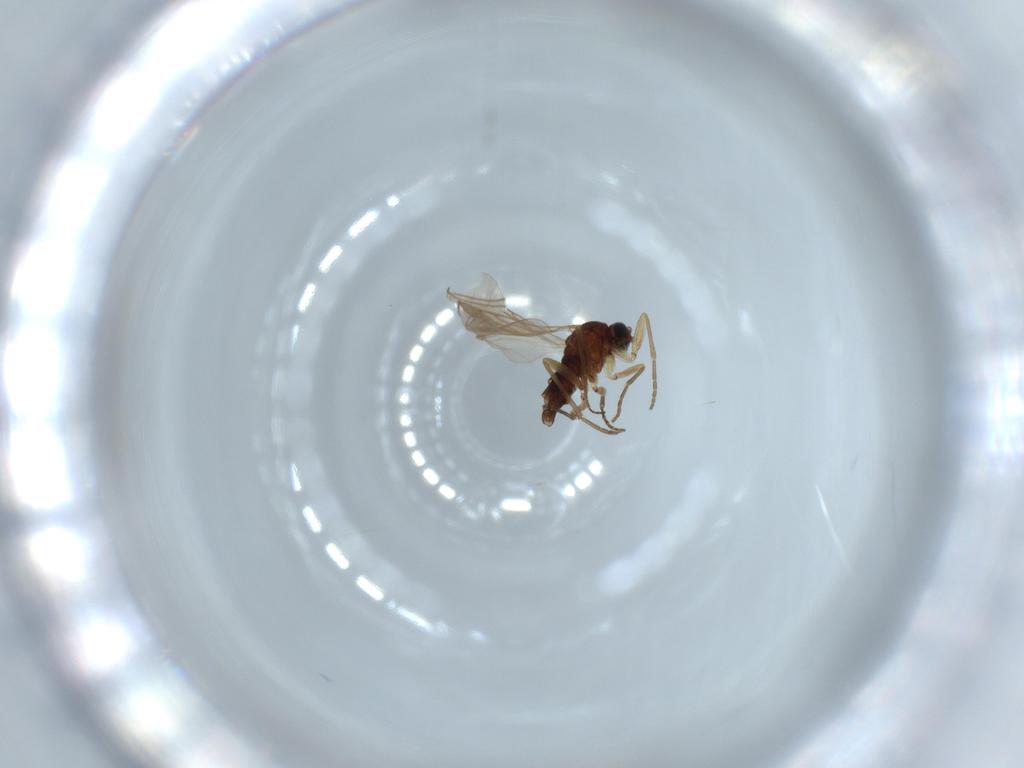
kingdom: Animalia
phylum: Arthropoda
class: Insecta
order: Diptera
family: Sciaridae
